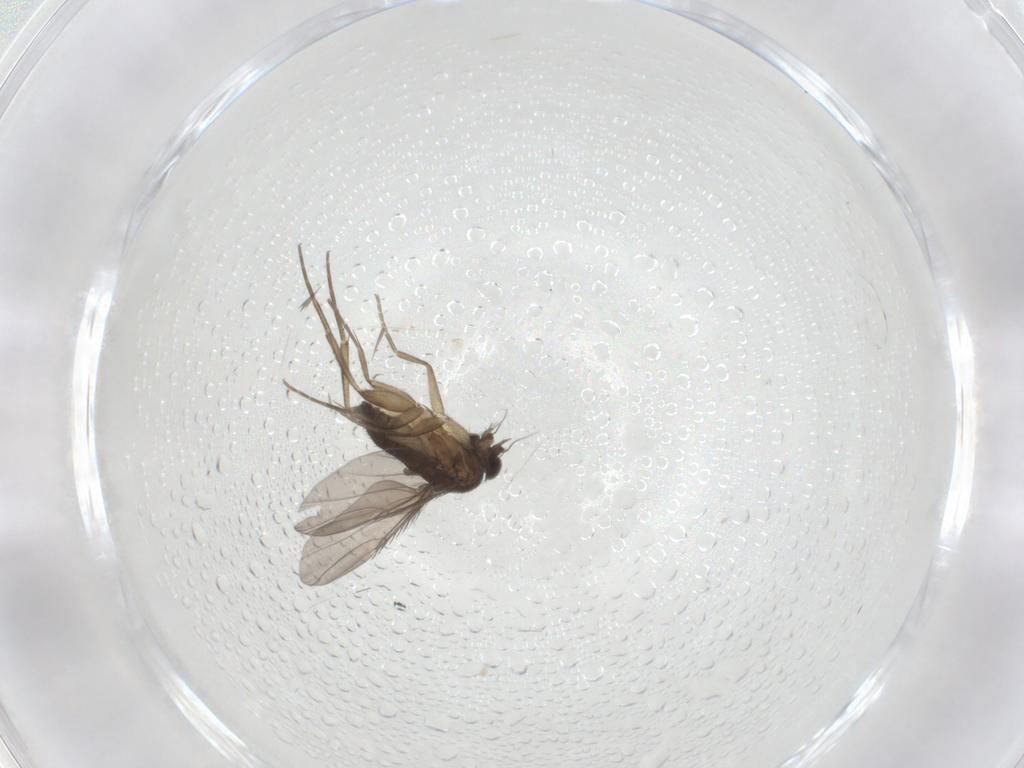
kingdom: Animalia
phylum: Arthropoda
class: Insecta
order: Diptera
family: Phoridae
